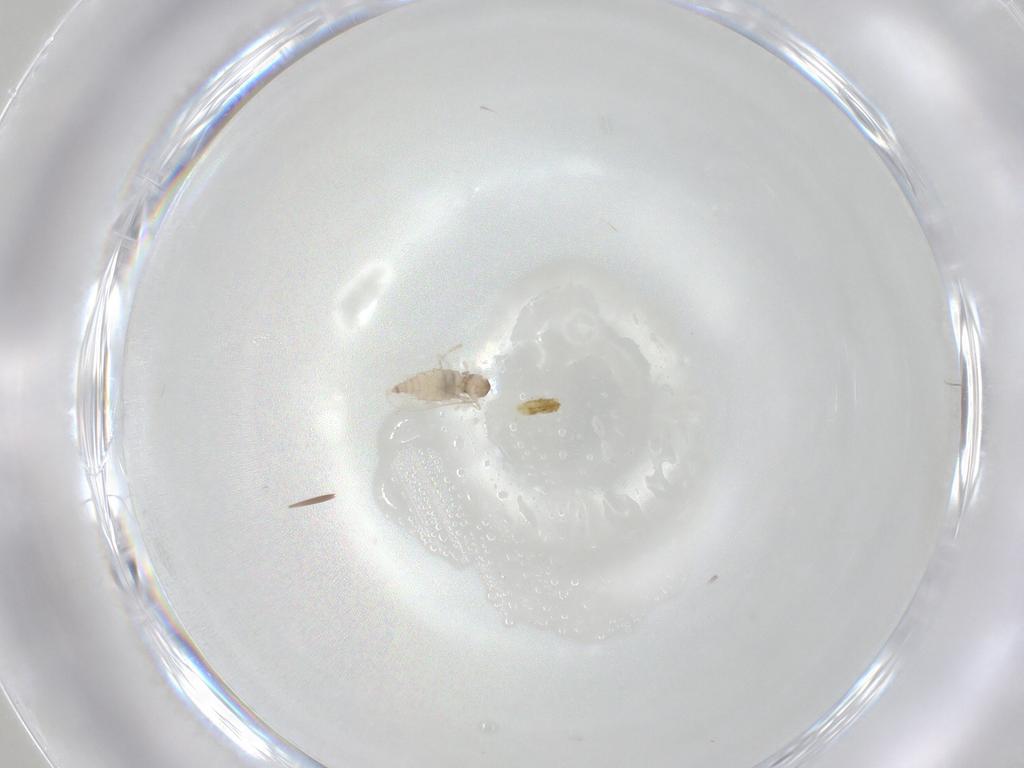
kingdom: Animalia
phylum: Arthropoda
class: Insecta
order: Diptera
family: Cecidomyiidae
